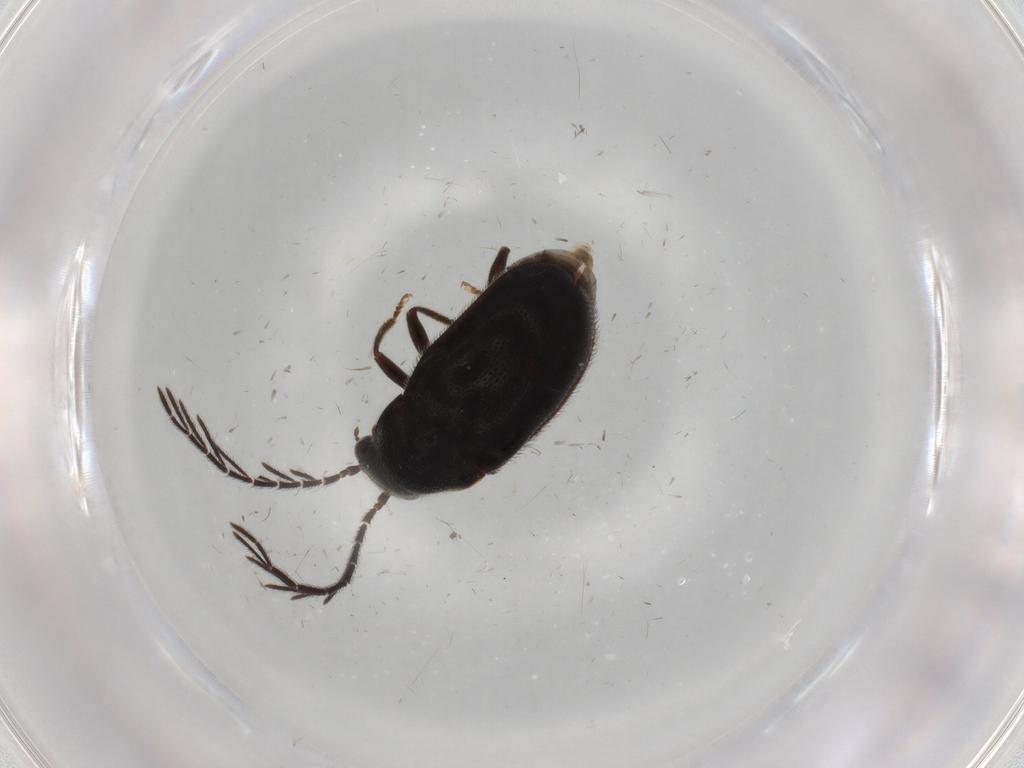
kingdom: Animalia
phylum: Arthropoda
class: Insecta
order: Coleoptera
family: Ptilodactylidae
